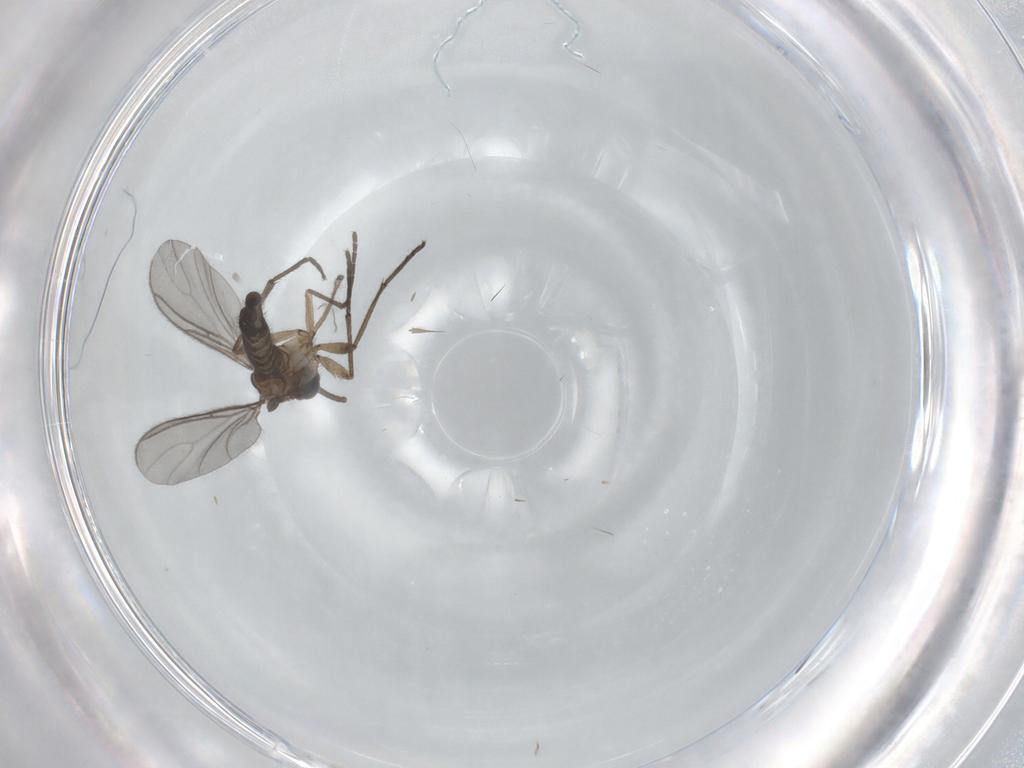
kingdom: Animalia
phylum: Arthropoda
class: Insecta
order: Diptera
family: Sciaridae
